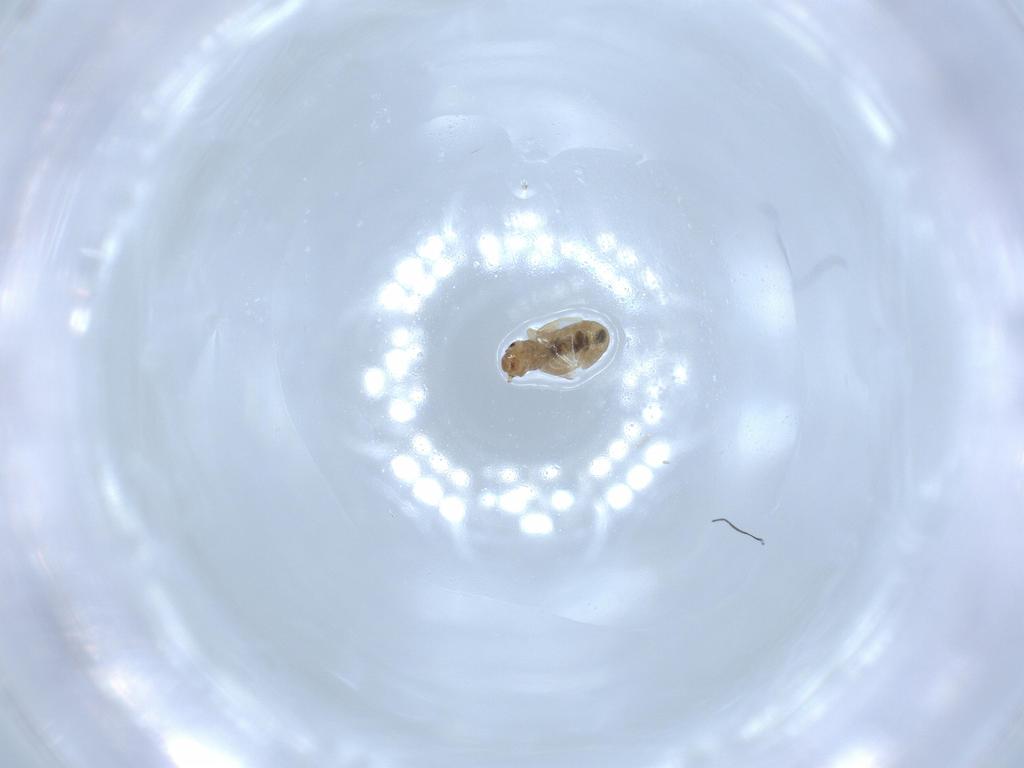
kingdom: Animalia
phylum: Arthropoda
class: Insecta
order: Psocodea
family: Liposcelididae
